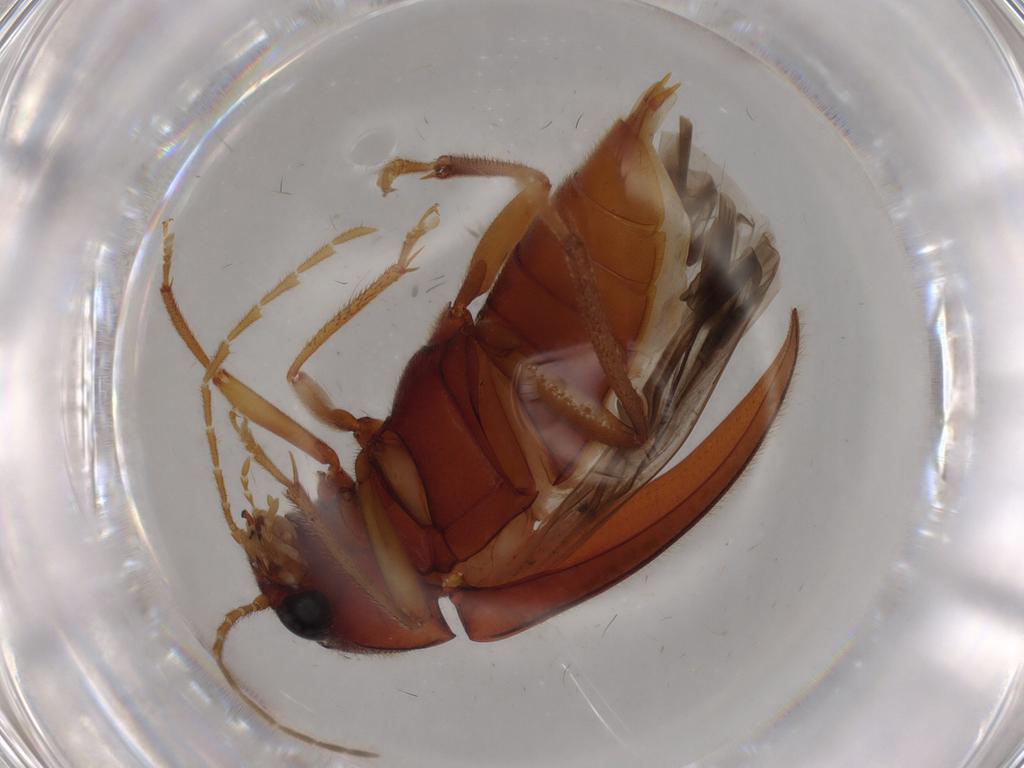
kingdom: Animalia
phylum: Arthropoda
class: Insecta
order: Coleoptera
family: Ptilodactylidae
